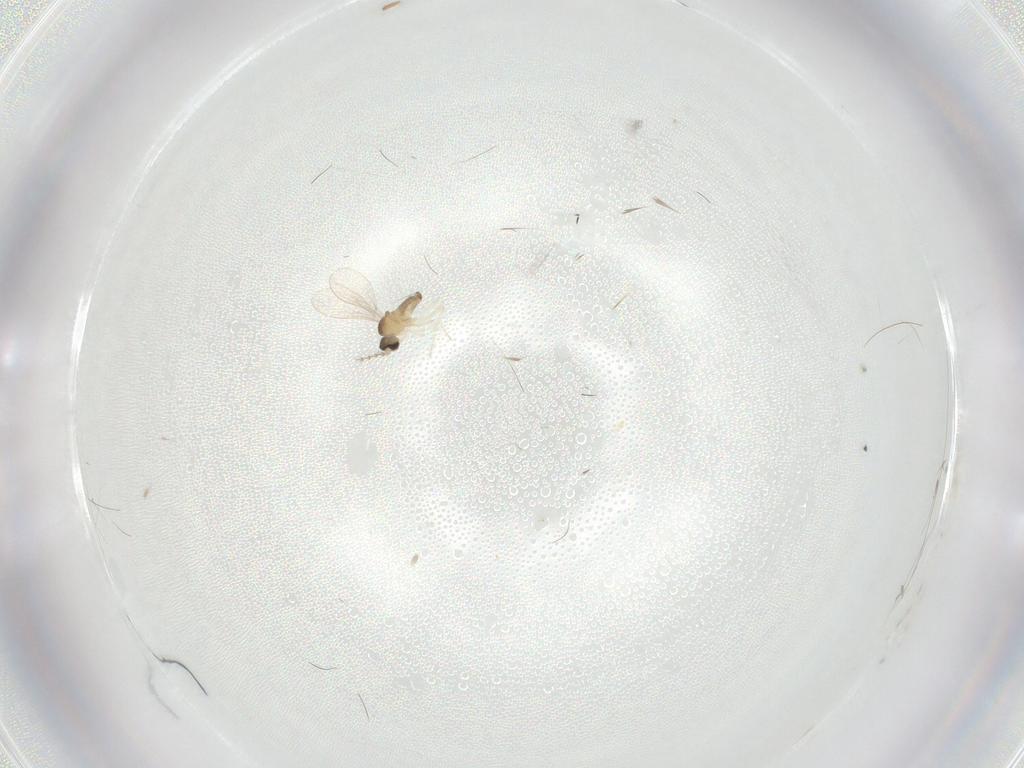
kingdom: Animalia
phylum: Arthropoda
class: Insecta
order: Diptera
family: Cecidomyiidae
